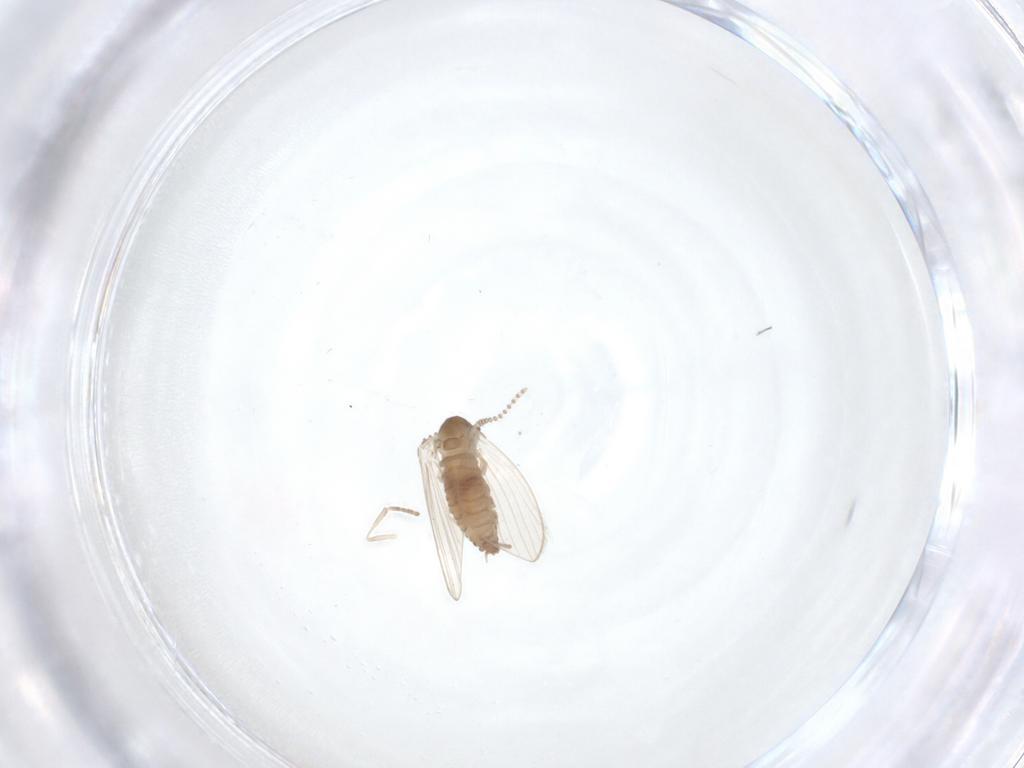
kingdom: Animalia
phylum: Arthropoda
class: Insecta
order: Diptera
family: Psychodidae
